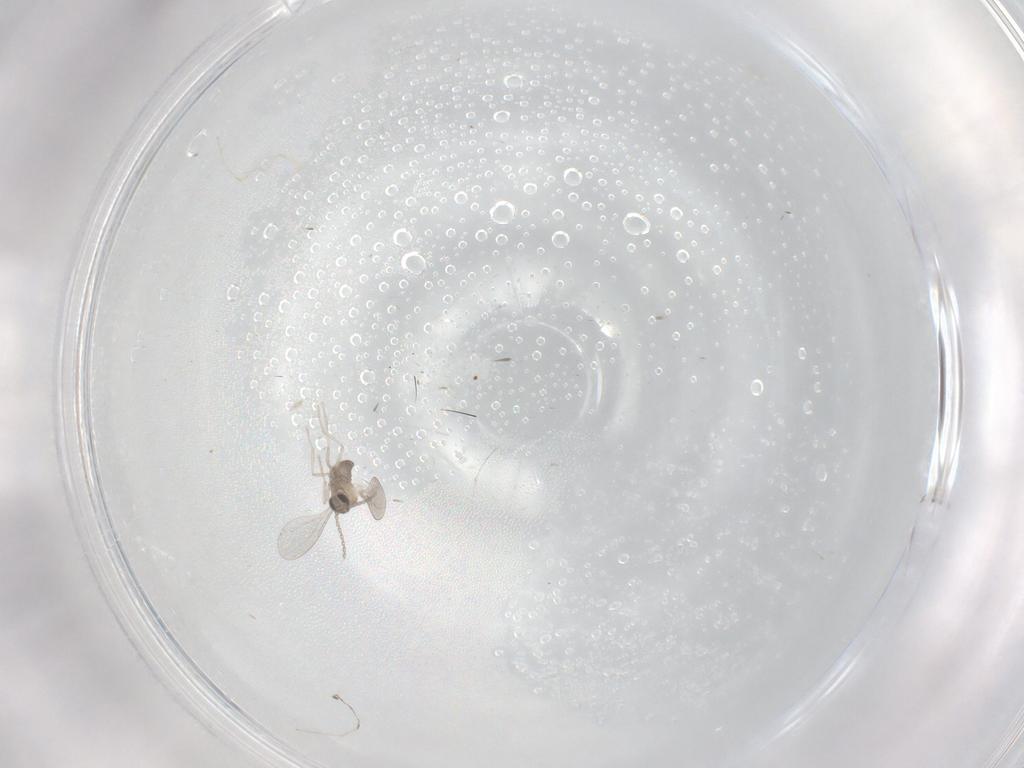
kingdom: Animalia
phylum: Arthropoda
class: Insecta
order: Diptera
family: Cecidomyiidae
